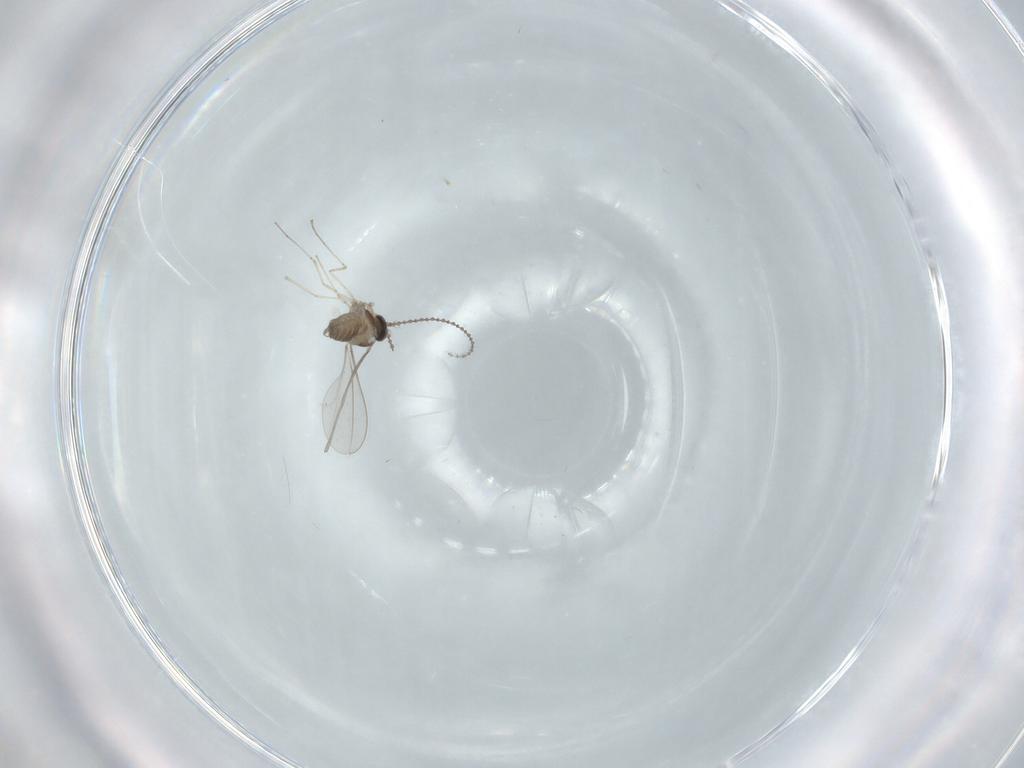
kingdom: Animalia
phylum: Arthropoda
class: Insecta
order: Diptera
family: Cecidomyiidae
